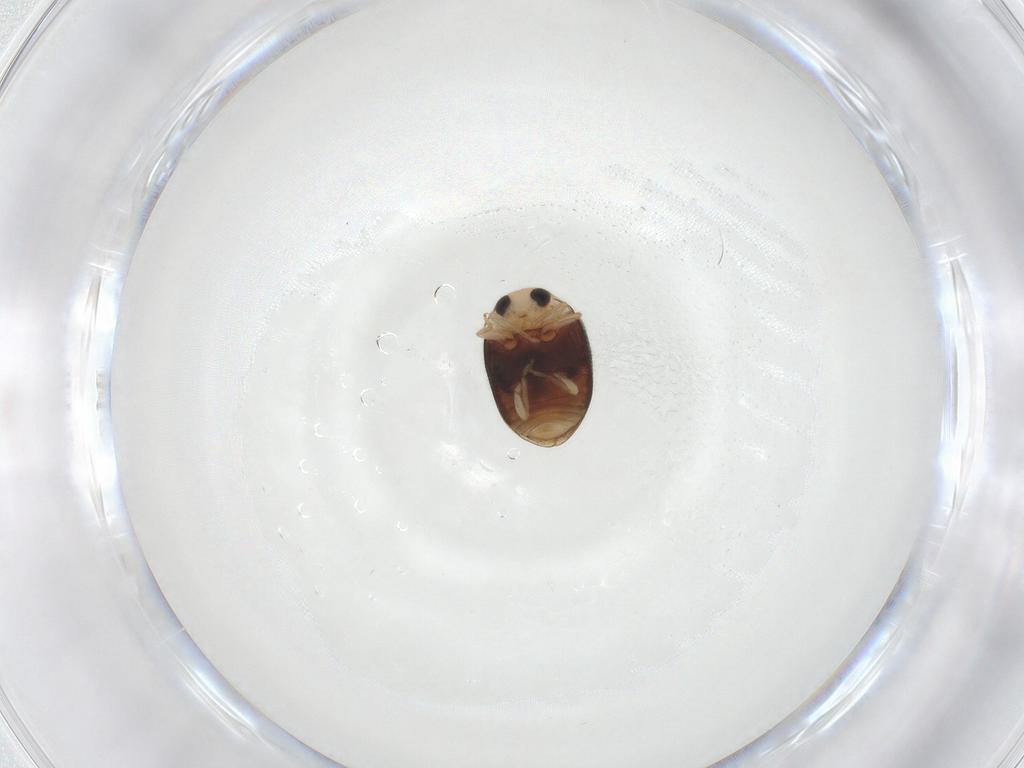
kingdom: Animalia
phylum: Arthropoda
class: Insecta
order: Coleoptera
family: Coccinellidae
